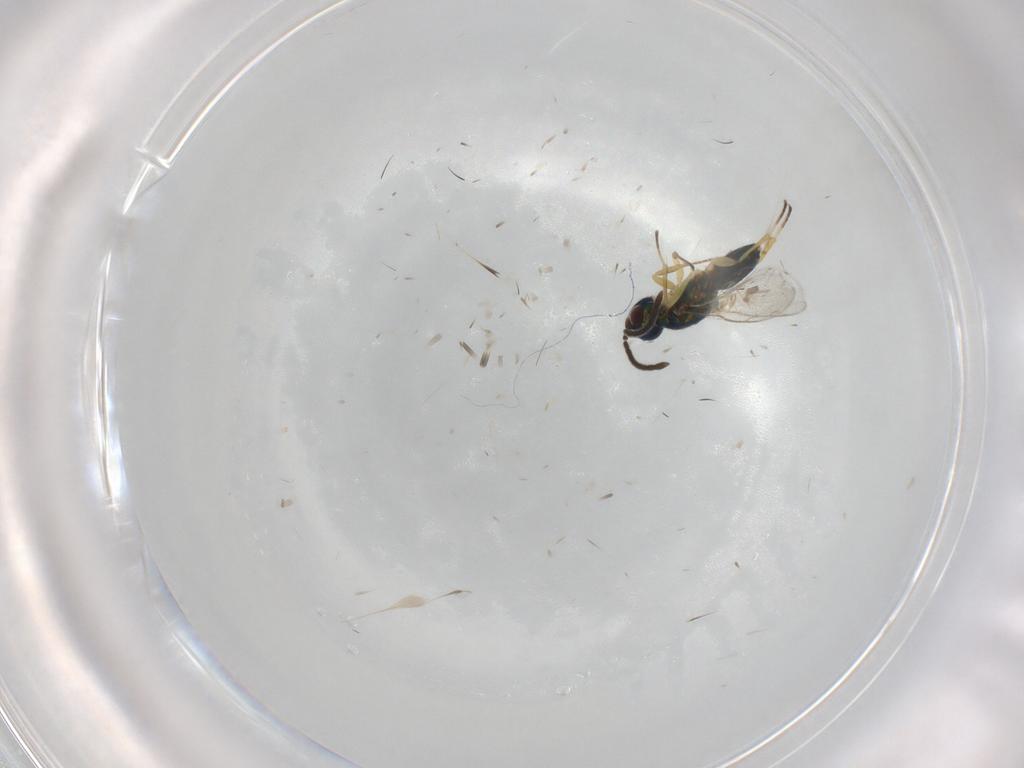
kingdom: Animalia
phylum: Arthropoda
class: Insecta
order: Hymenoptera
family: Eupelmidae
